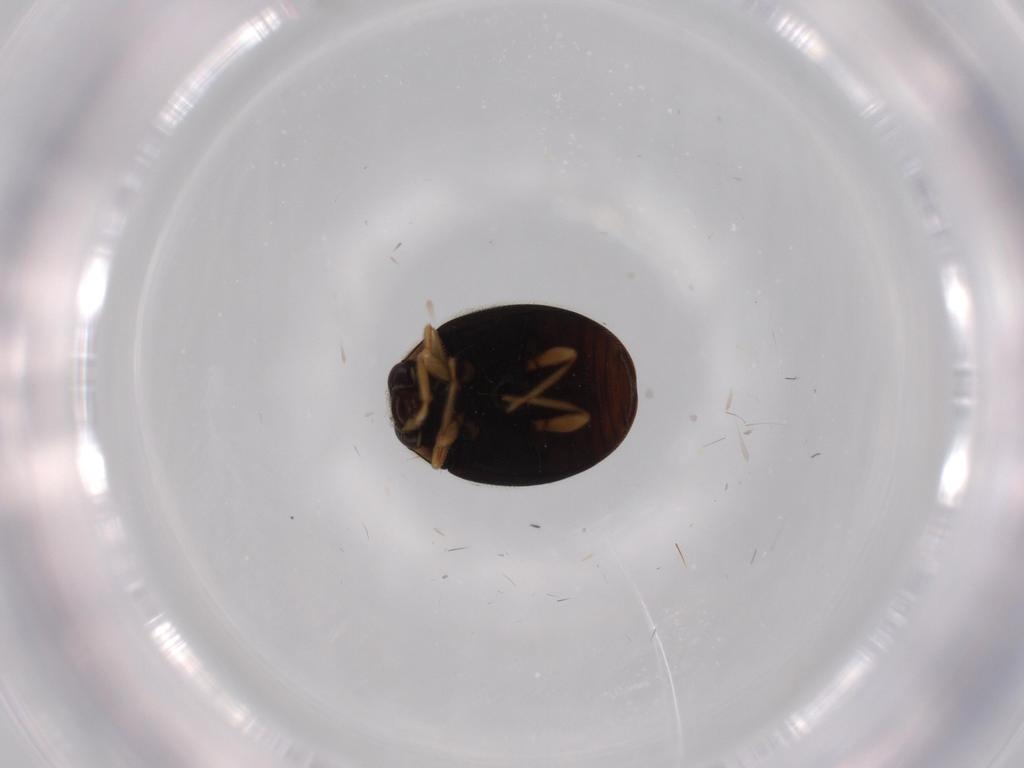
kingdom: Animalia
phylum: Arthropoda
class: Insecta
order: Coleoptera
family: Coccinellidae
